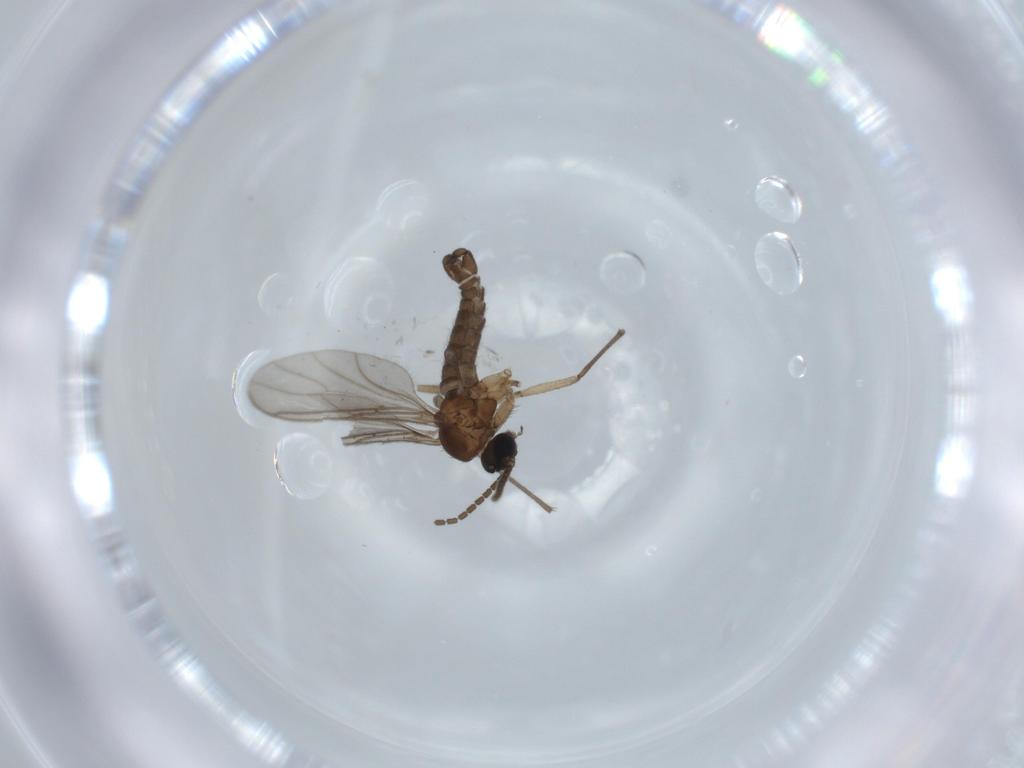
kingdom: Animalia
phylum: Arthropoda
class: Insecta
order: Diptera
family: Sciaridae
